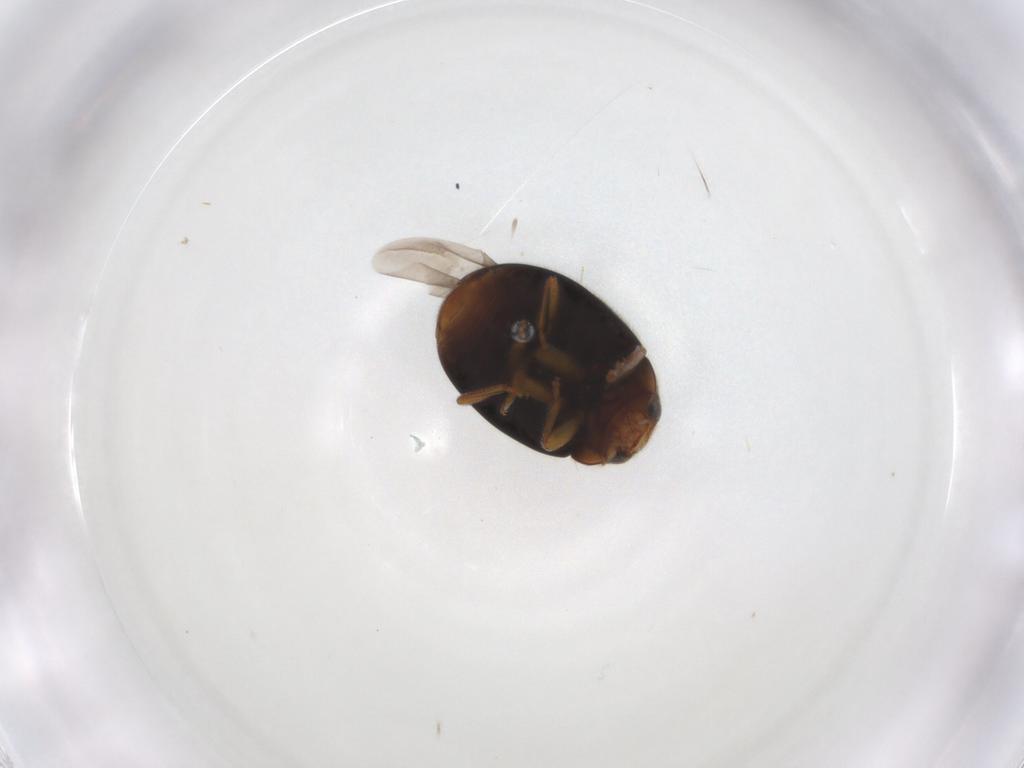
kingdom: Animalia
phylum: Arthropoda
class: Insecta
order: Coleoptera
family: Coccinellidae
